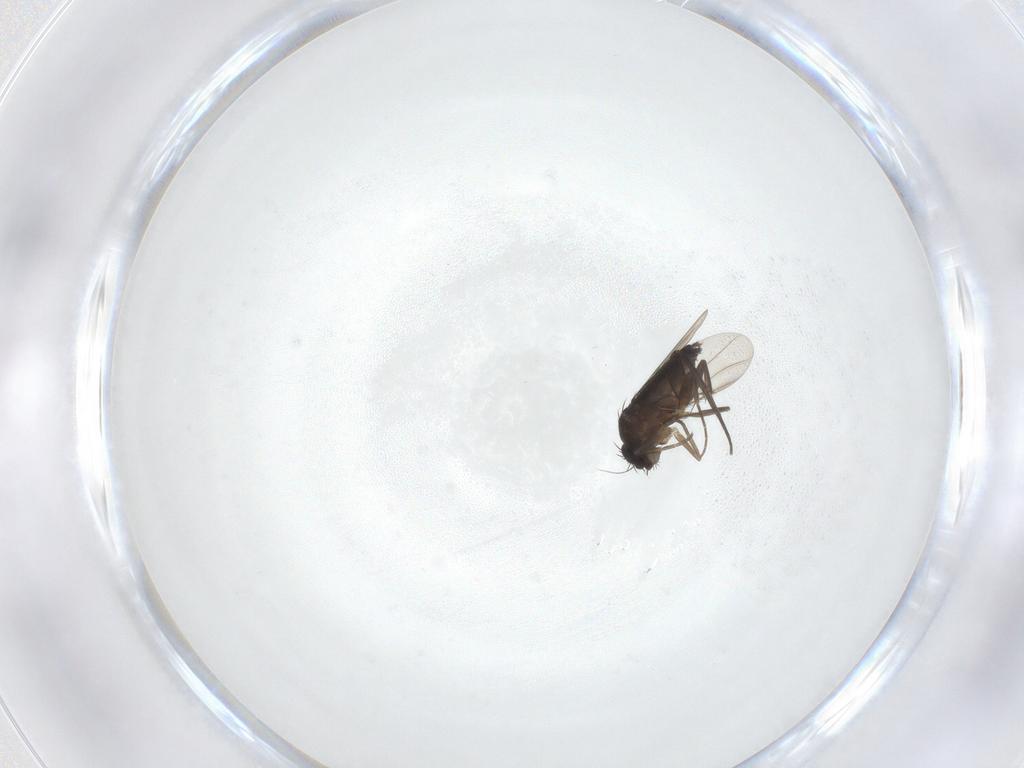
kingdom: Animalia
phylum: Arthropoda
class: Insecta
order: Diptera
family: Phoridae
